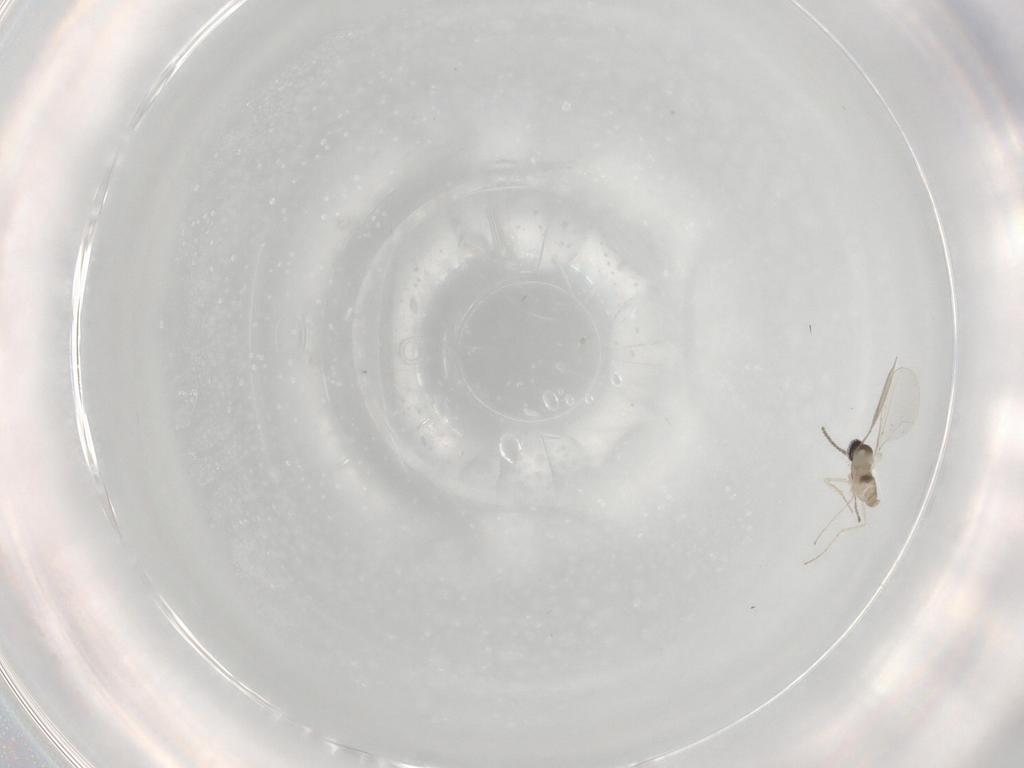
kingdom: Animalia
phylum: Arthropoda
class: Insecta
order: Diptera
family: Cecidomyiidae
